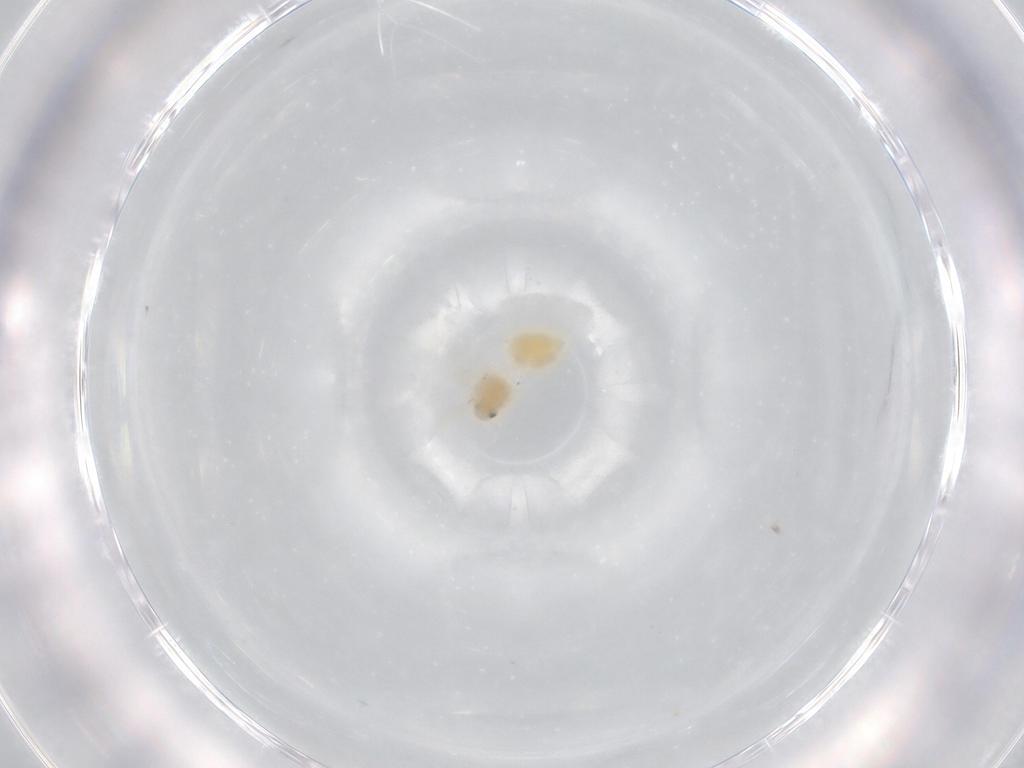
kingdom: Animalia
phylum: Arthropoda
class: Insecta
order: Hemiptera
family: Aleyrodidae
